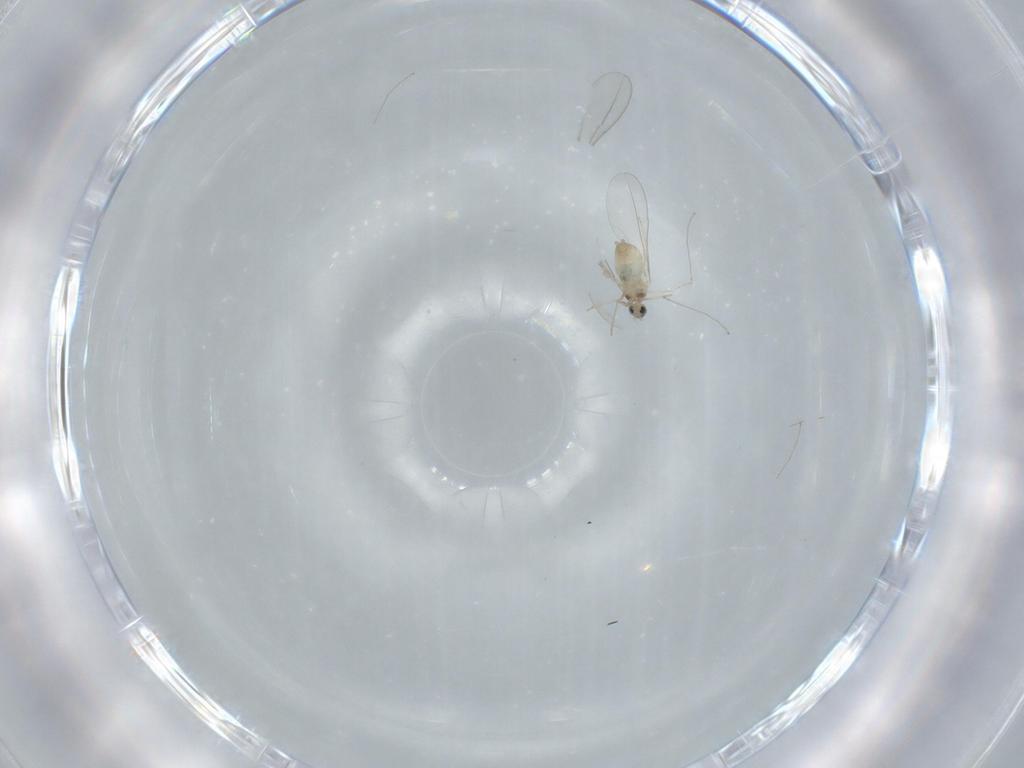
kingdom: Animalia
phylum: Arthropoda
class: Insecta
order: Diptera
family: Cecidomyiidae
